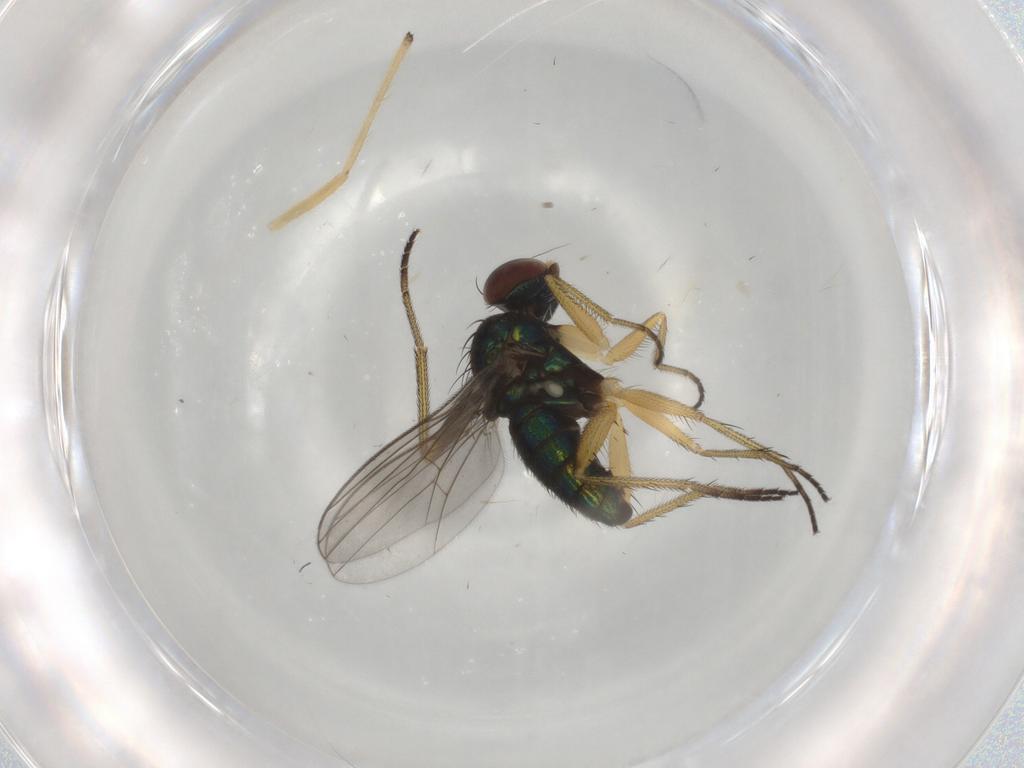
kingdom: Animalia
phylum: Arthropoda
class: Insecta
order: Diptera
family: Dolichopodidae
